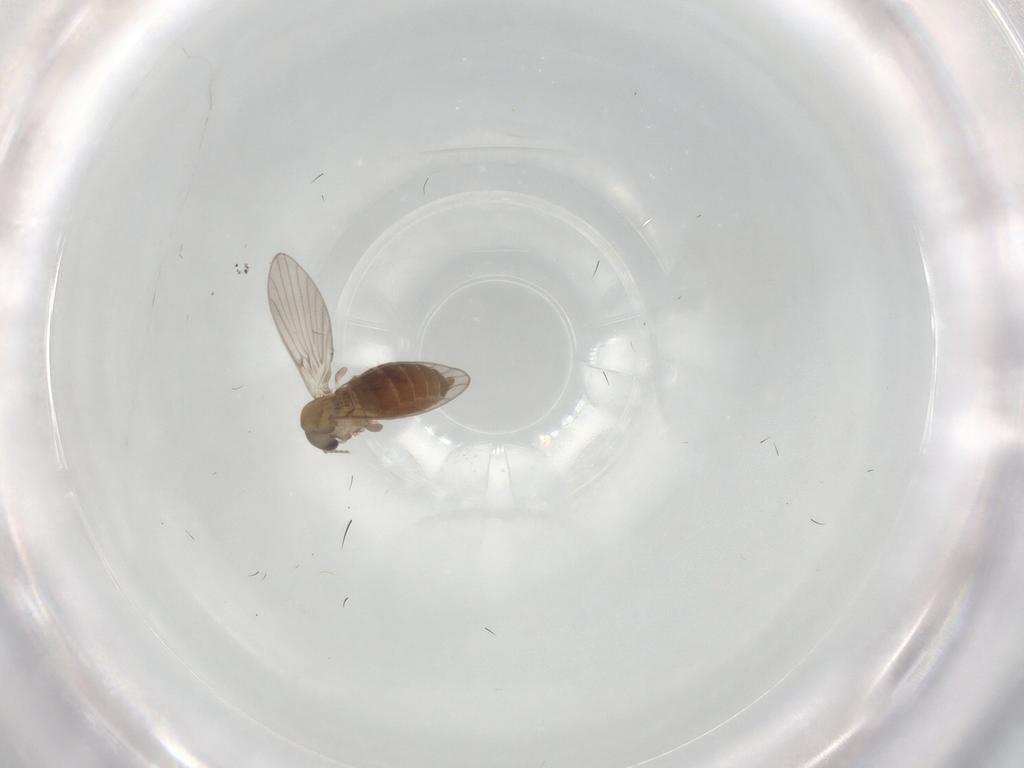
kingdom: Animalia
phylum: Arthropoda
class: Insecta
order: Diptera
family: Psychodidae
